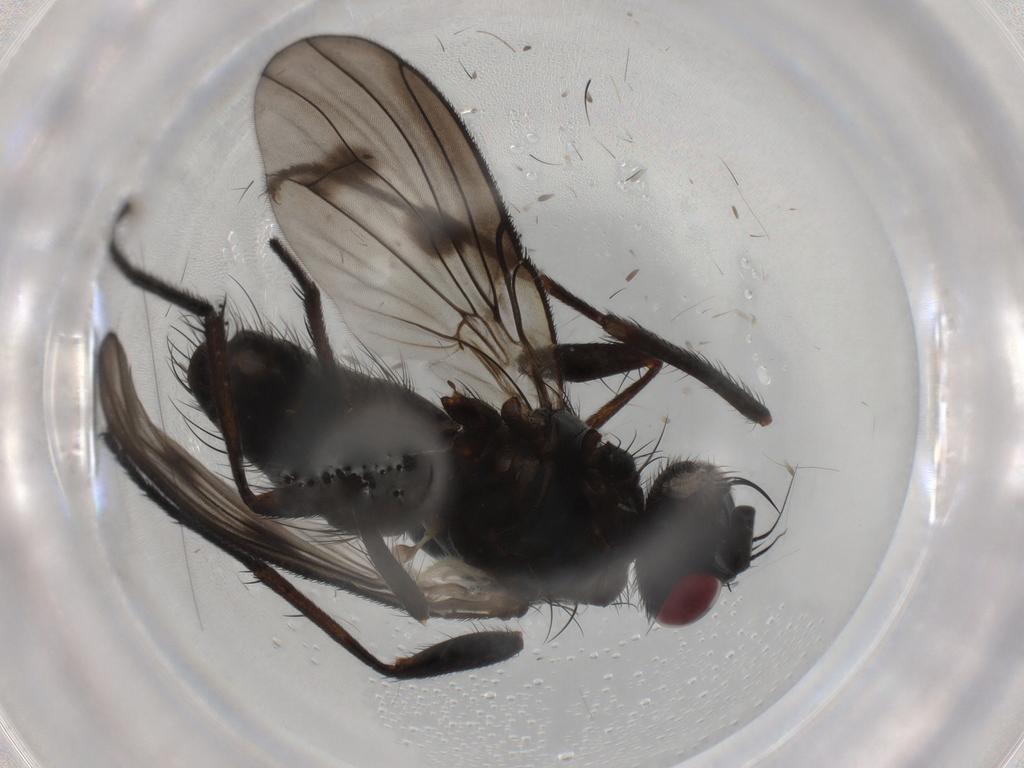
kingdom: Animalia
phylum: Arthropoda
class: Insecta
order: Diptera
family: Muscidae
